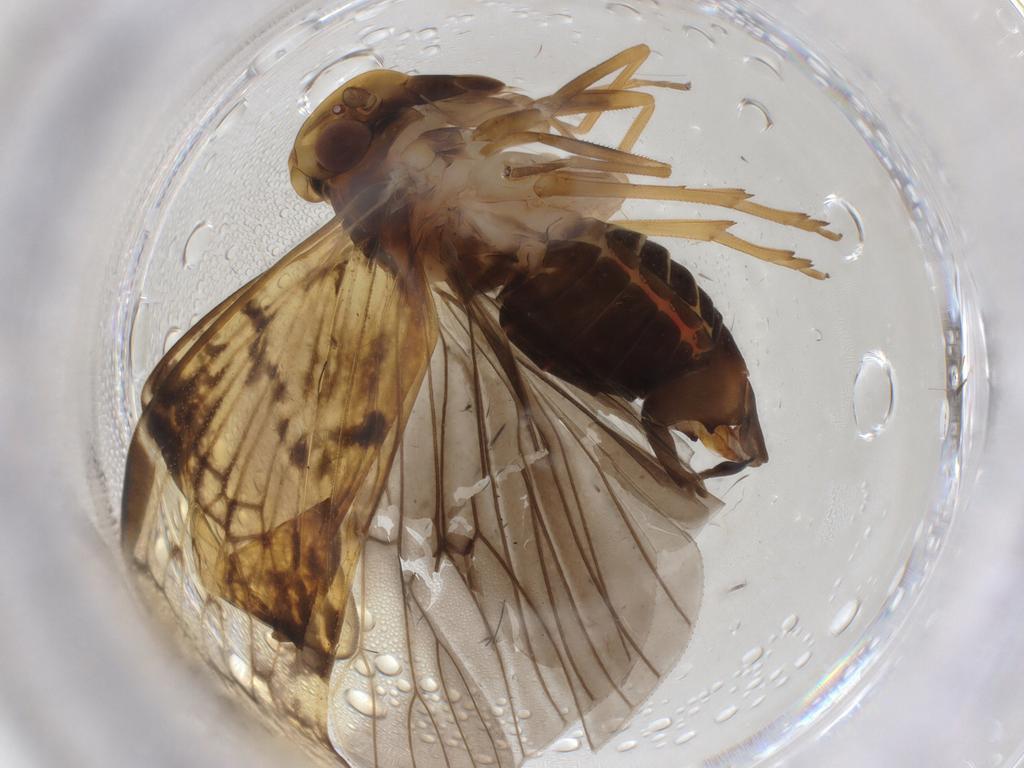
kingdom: Animalia
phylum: Arthropoda
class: Insecta
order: Hemiptera
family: Cixiidae
